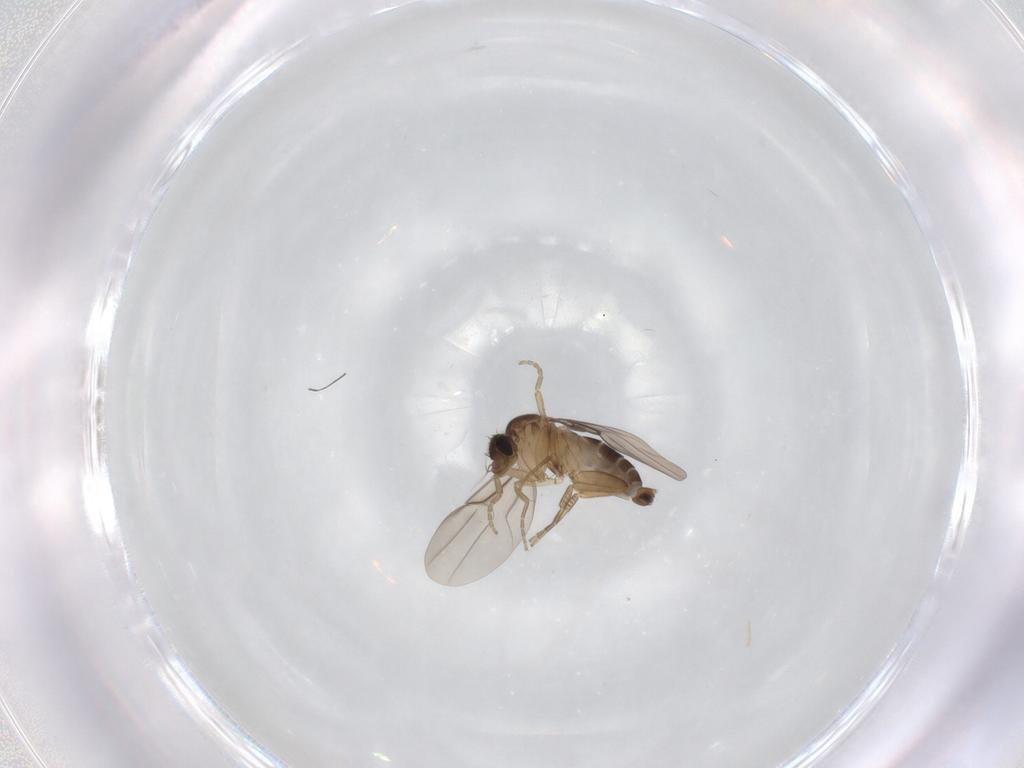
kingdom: Animalia
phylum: Arthropoda
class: Insecta
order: Diptera
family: Phoridae
